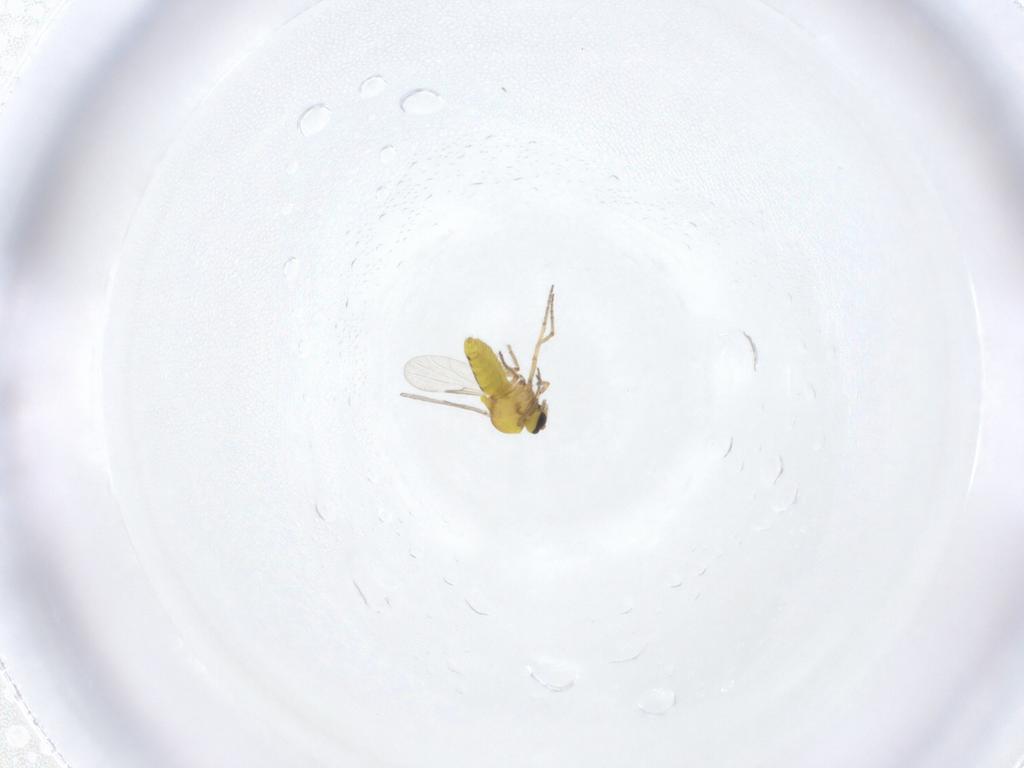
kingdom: Animalia
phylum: Arthropoda
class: Insecta
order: Diptera
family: Ceratopogonidae
